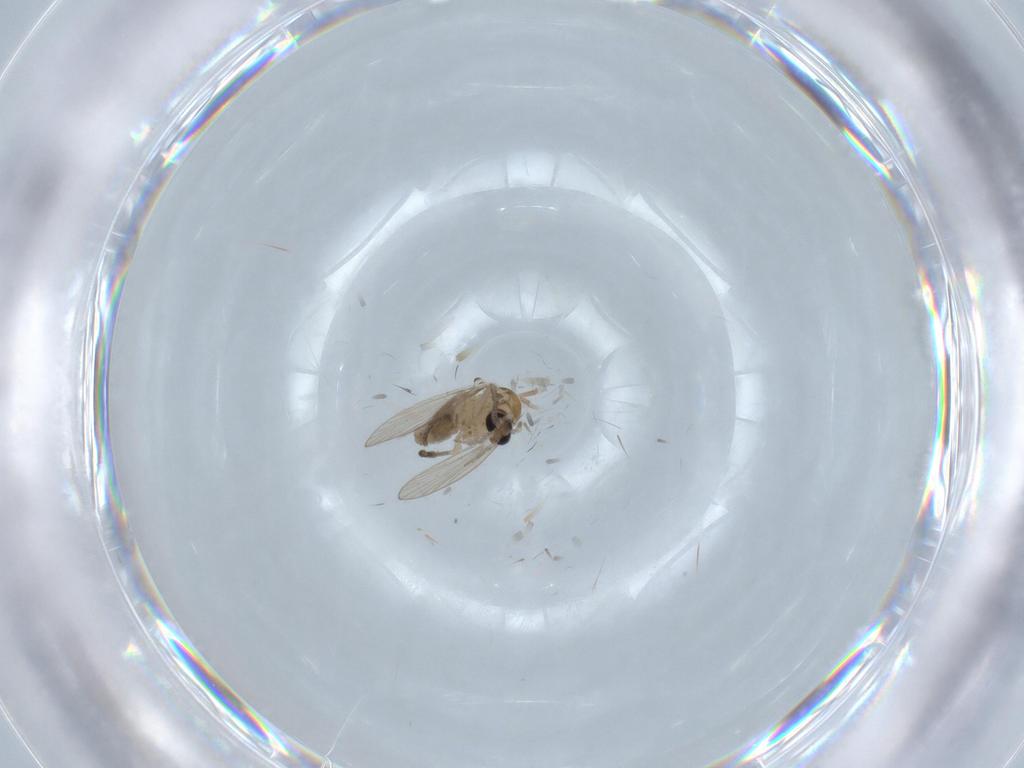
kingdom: Animalia
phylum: Arthropoda
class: Insecta
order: Diptera
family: Psychodidae
